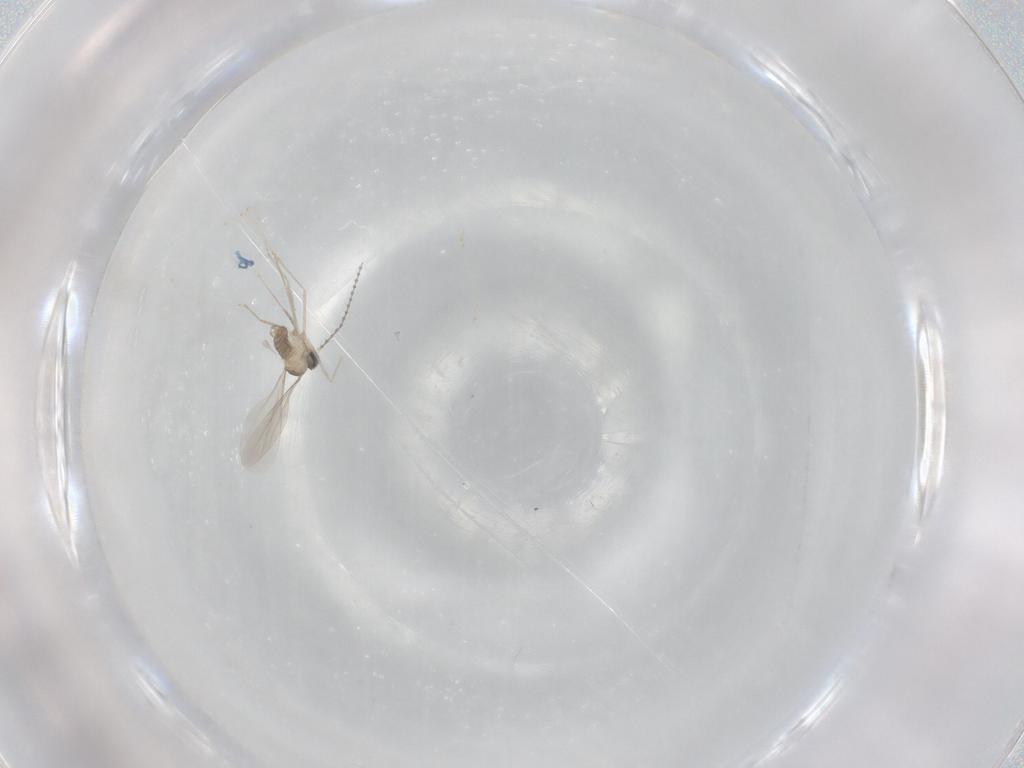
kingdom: Animalia
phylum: Arthropoda
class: Insecta
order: Diptera
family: Cecidomyiidae
